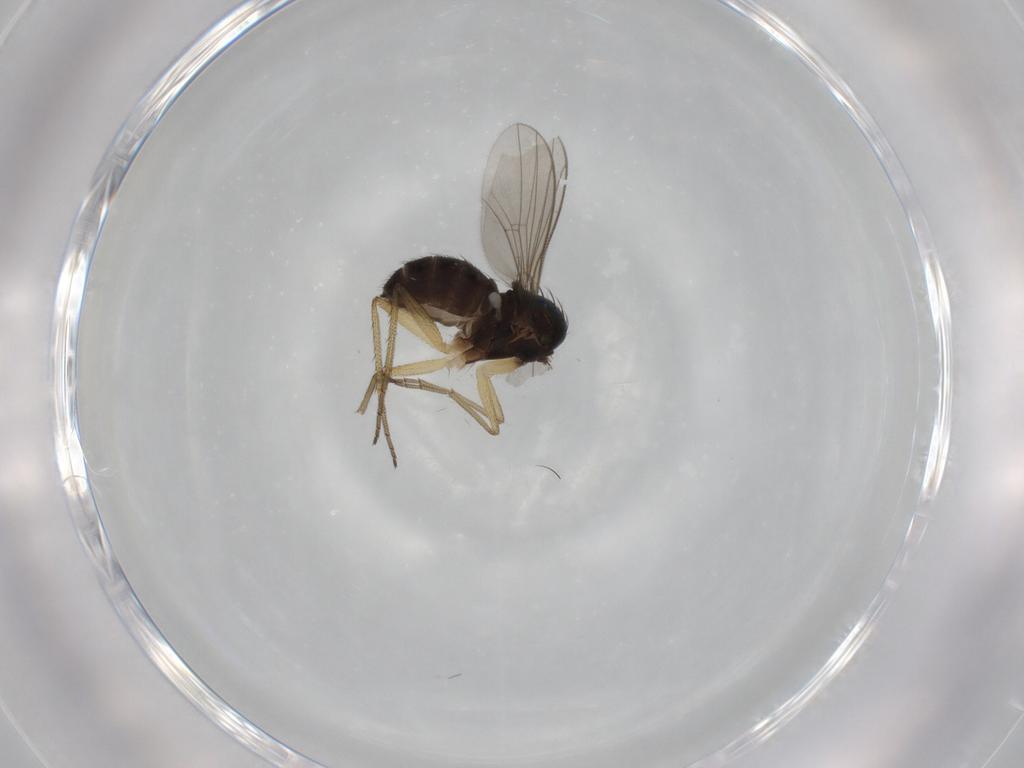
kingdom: Animalia
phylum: Arthropoda
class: Insecta
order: Diptera
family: Dolichopodidae
